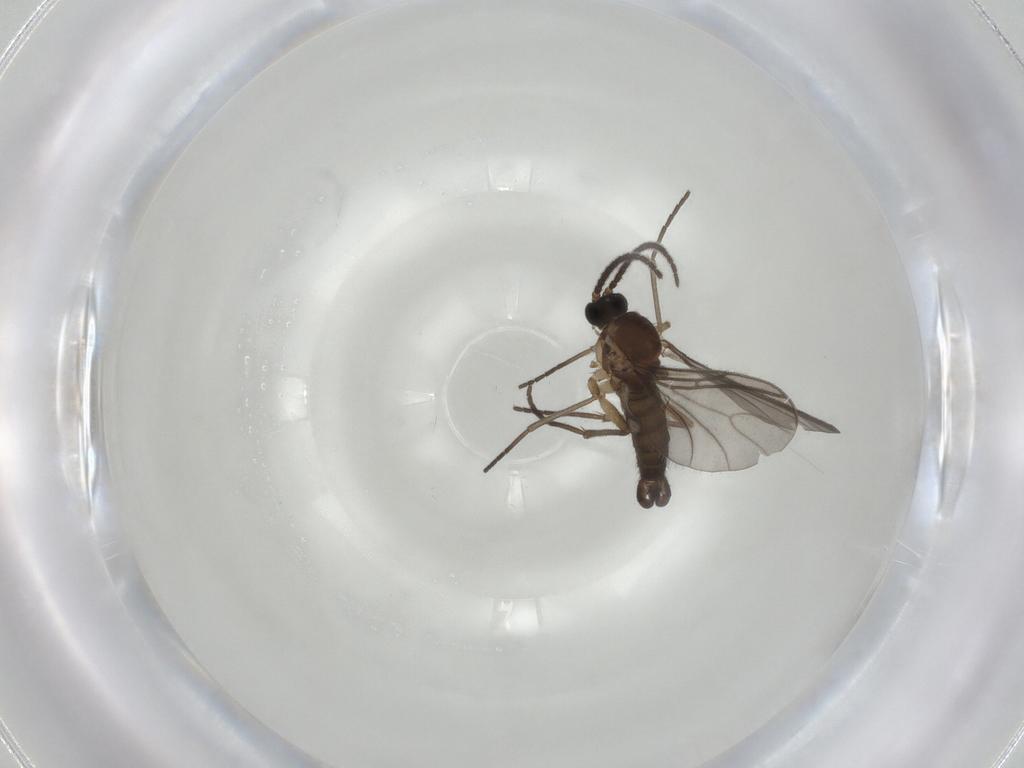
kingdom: Animalia
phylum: Arthropoda
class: Insecta
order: Diptera
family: Sciaridae
